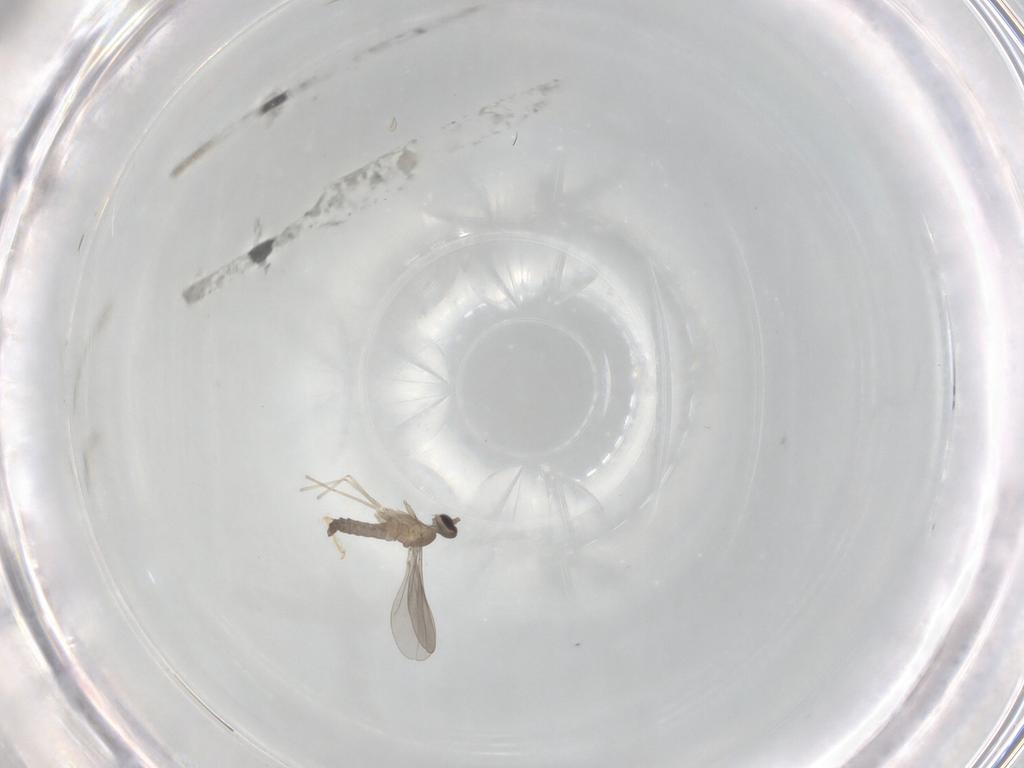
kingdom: Animalia
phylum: Arthropoda
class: Insecta
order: Diptera
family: Cecidomyiidae
